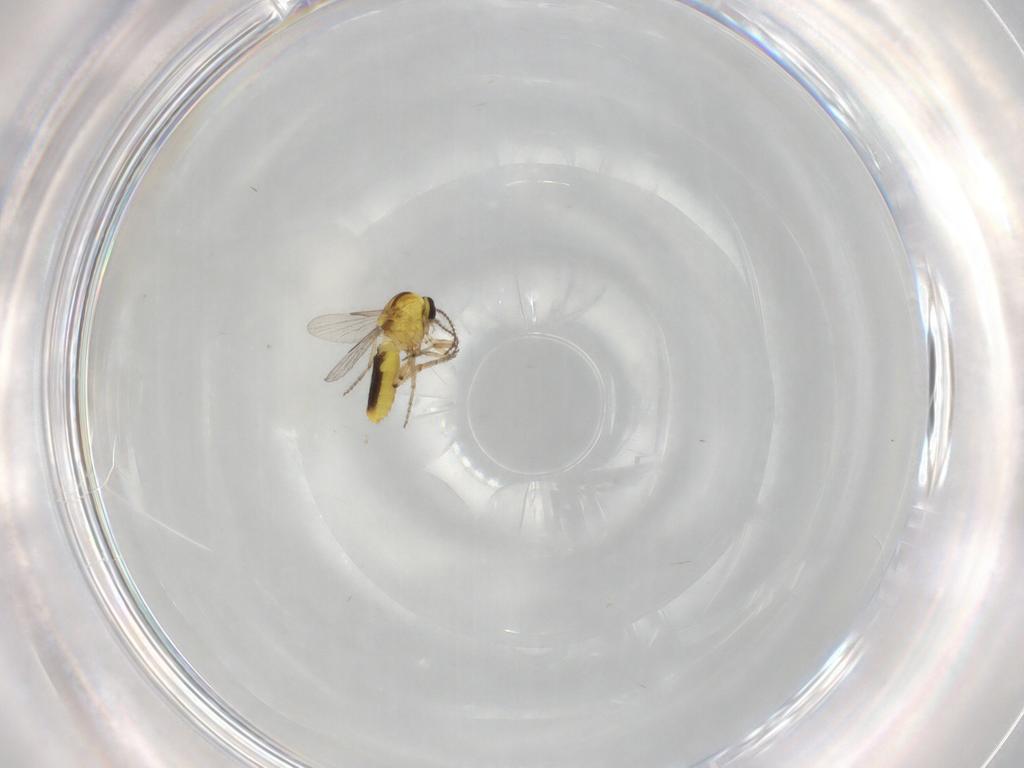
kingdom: Animalia
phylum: Arthropoda
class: Insecta
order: Diptera
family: Ceratopogonidae
